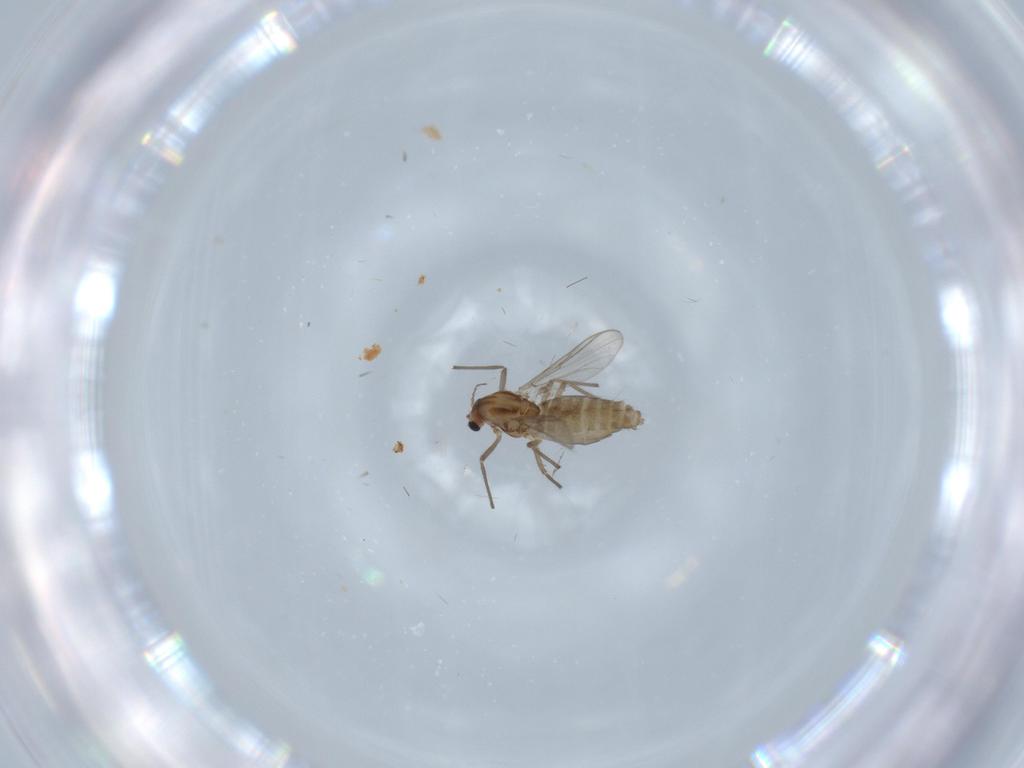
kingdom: Animalia
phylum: Arthropoda
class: Insecta
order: Diptera
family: Chironomidae
